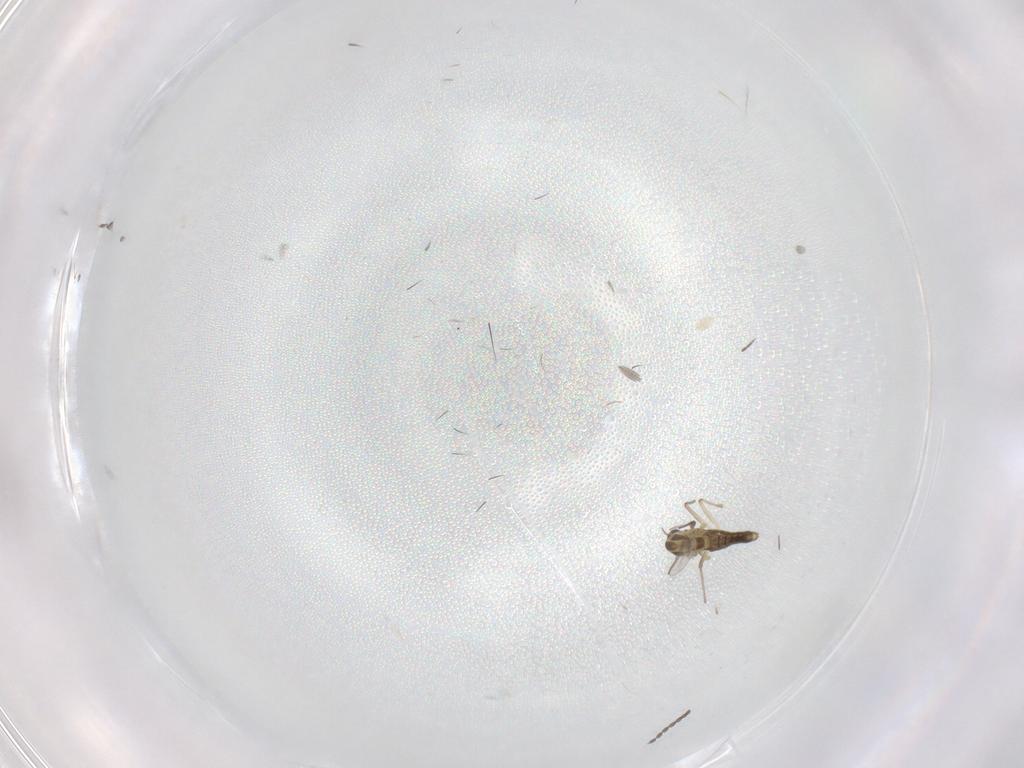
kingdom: Animalia
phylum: Arthropoda
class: Insecta
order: Diptera
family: Cecidomyiidae
